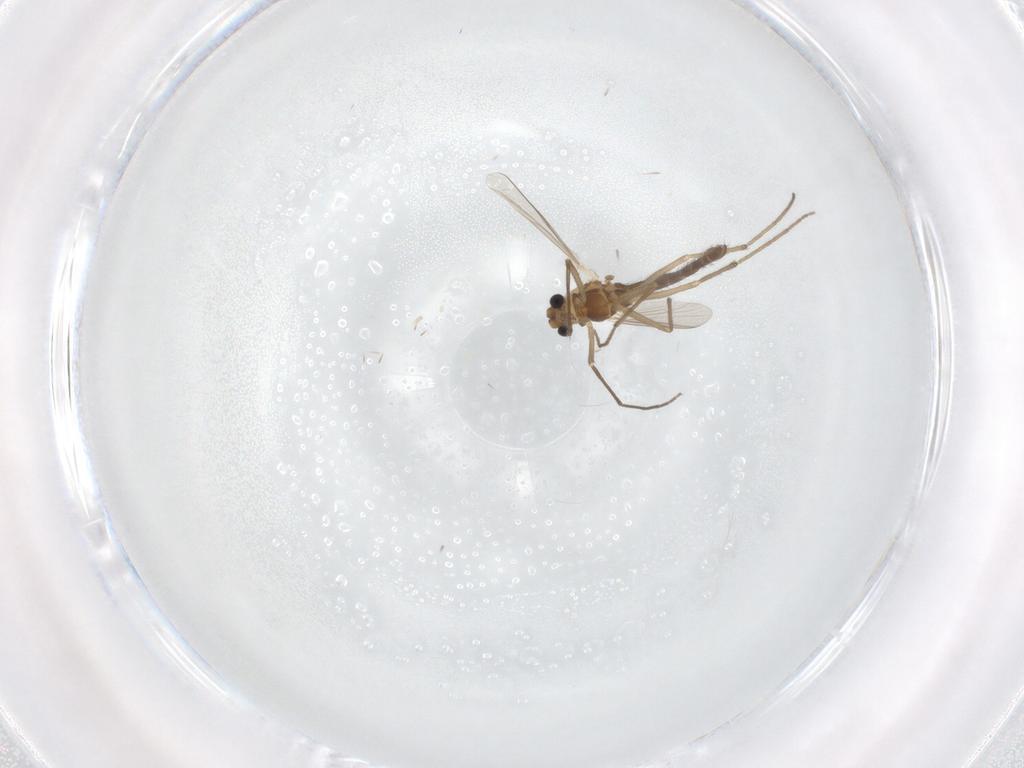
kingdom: Animalia
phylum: Arthropoda
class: Insecta
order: Diptera
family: Chironomidae
